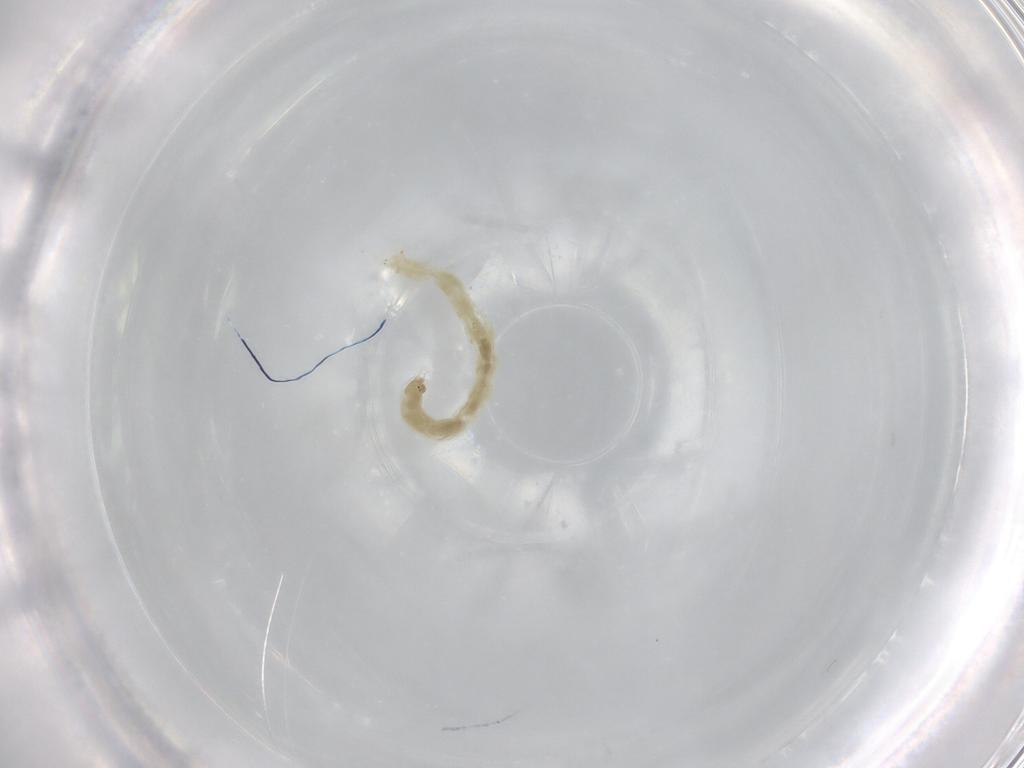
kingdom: Animalia
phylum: Arthropoda
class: Insecta
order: Diptera
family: Chironomidae
